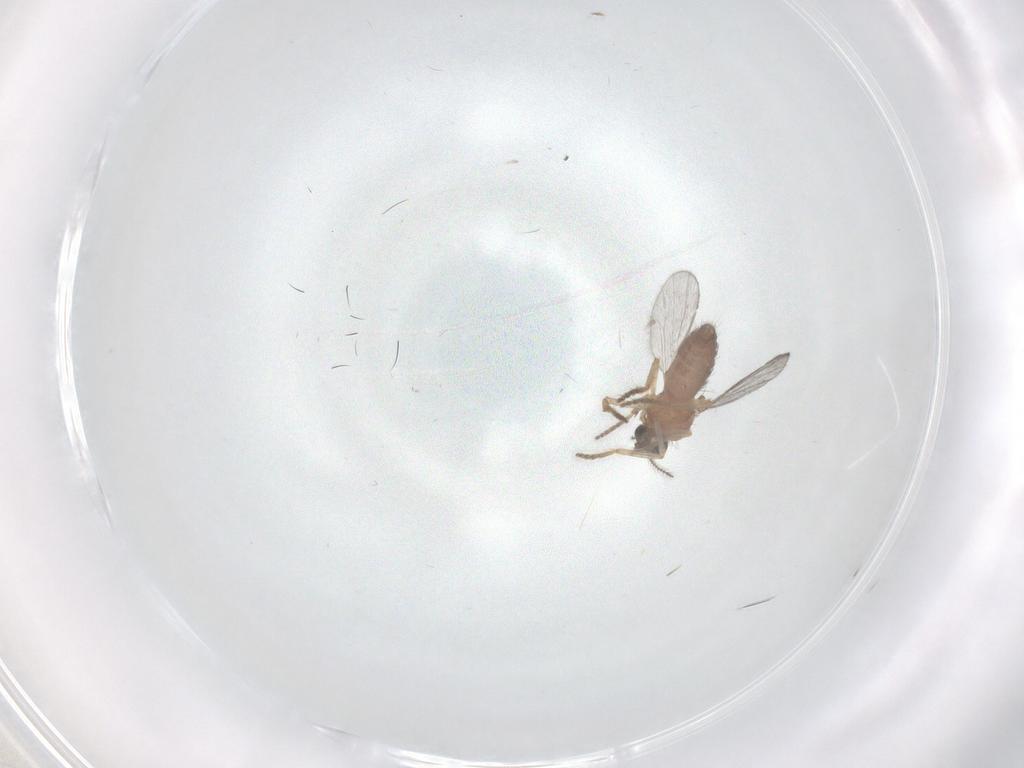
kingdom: Animalia
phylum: Arthropoda
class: Insecta
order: Diptera
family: Ceratopogonidae
